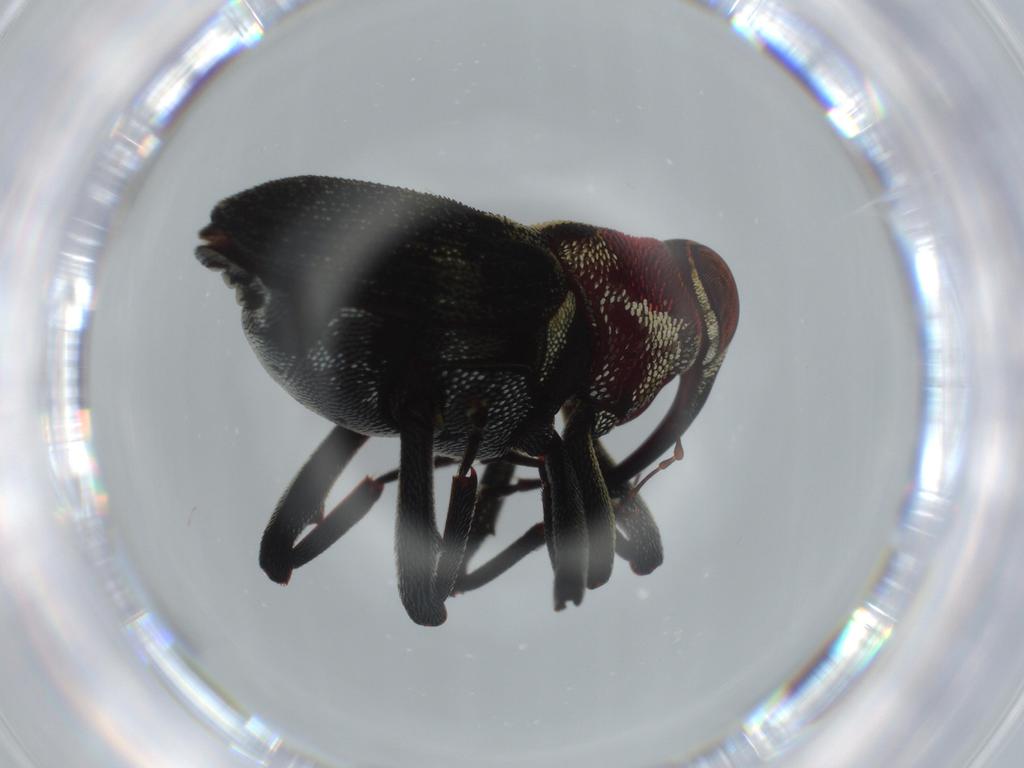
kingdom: Animalia
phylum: Arthropoda
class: Insecta
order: Coleoptera
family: Curculionidae
